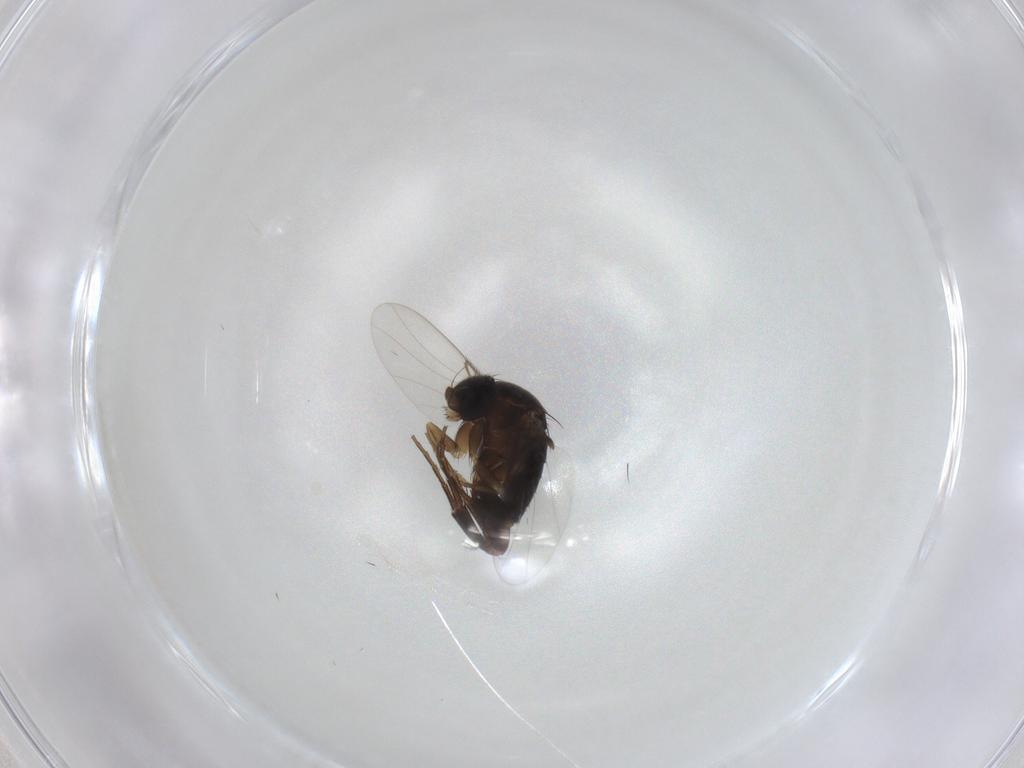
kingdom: Animalia
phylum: Arthropoda
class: Insecta
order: Diptera
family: Phoridae
